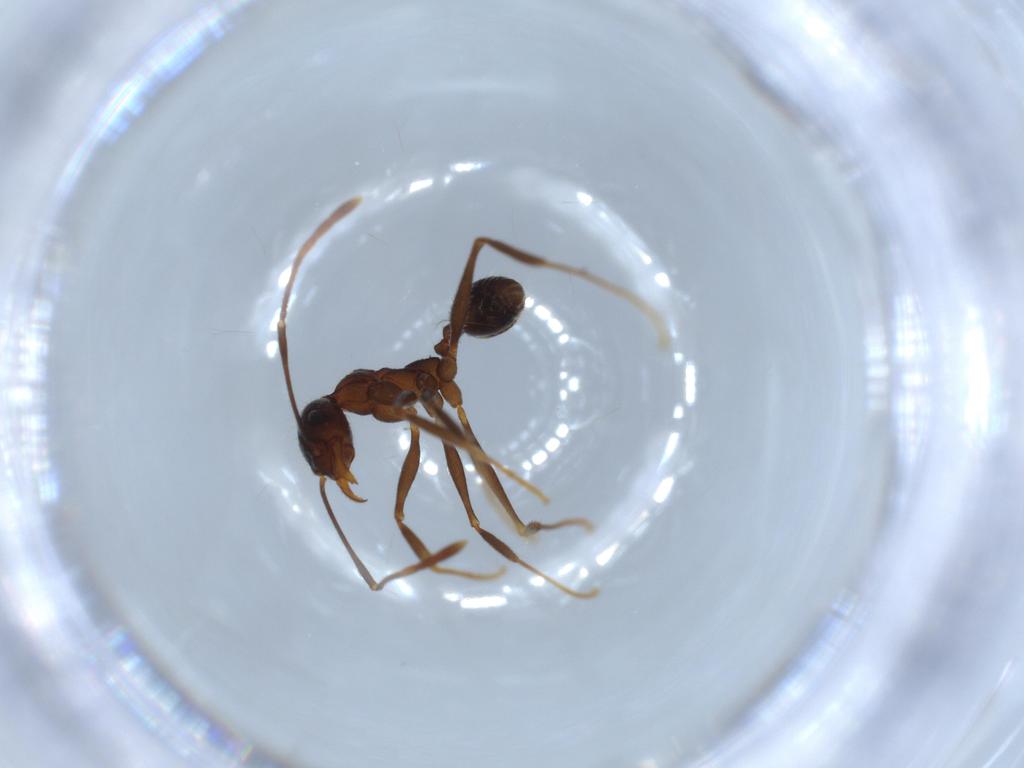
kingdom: Animalia
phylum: Arthropoda
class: Insecta
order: Hymenoptera
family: Formicidae
